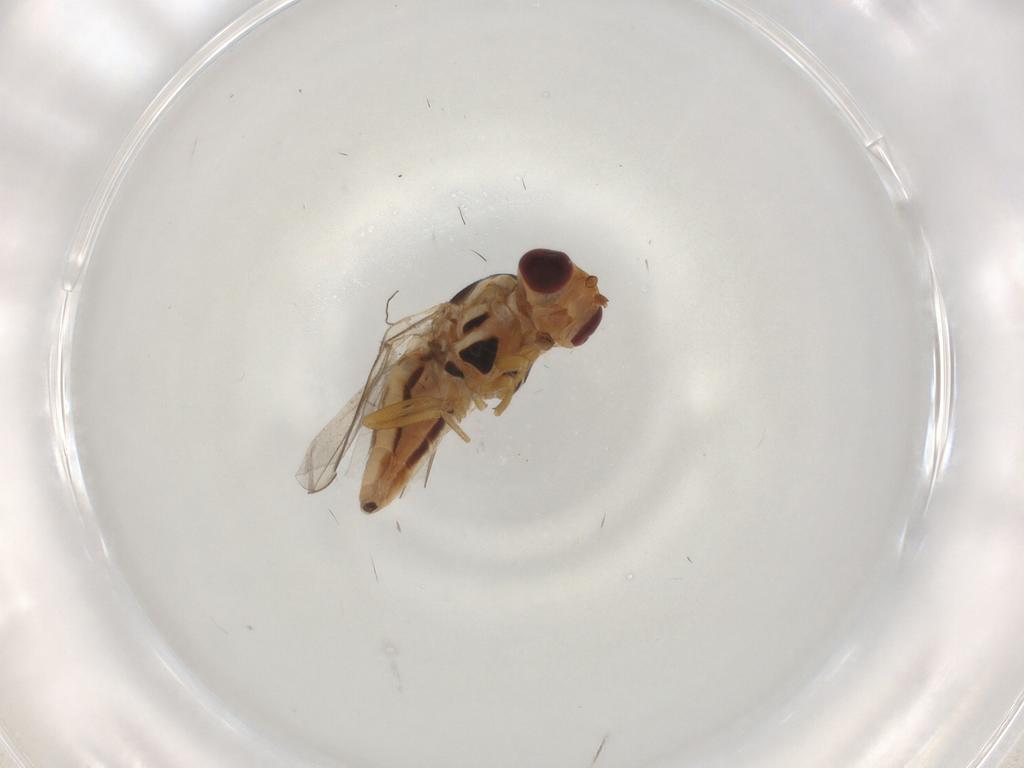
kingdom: Animalia
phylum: Arthropoda
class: Insecta
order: Diptera
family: Chloropidae
